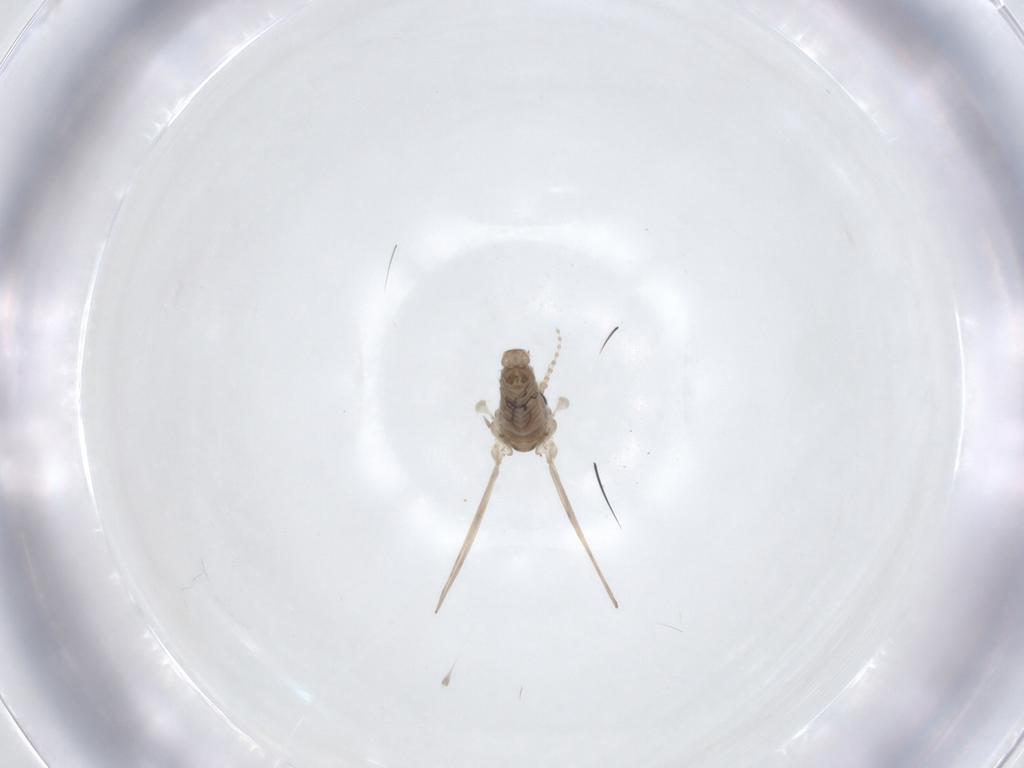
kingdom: Animalia
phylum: Arthropoda
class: Insecta
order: Diptera
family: Psychodidae
